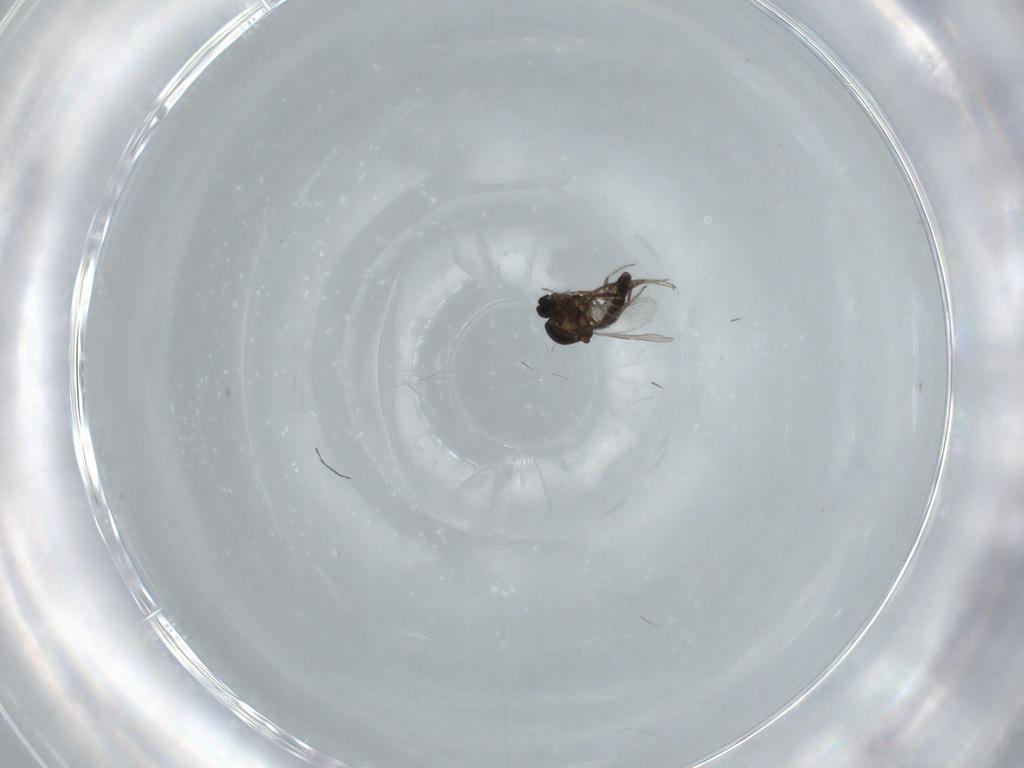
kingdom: Animalia
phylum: Arthropoda
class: Insecta
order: Diptera
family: Ceratopogonidae
